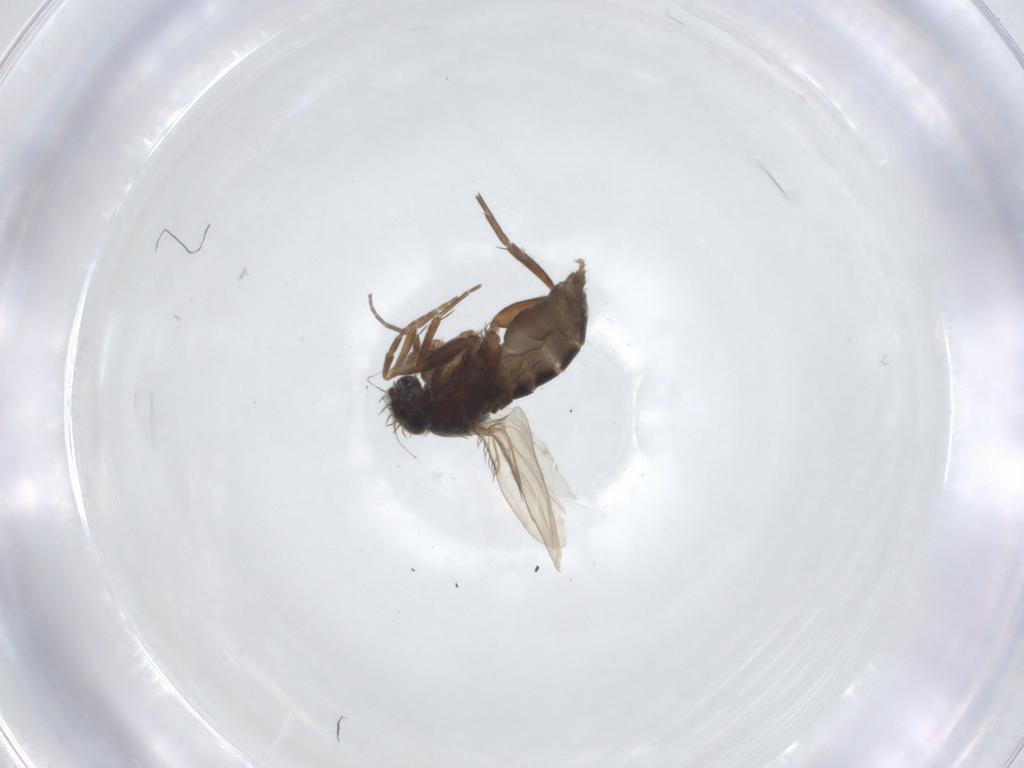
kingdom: Animalia
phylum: Arthropoda
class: Insecta
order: Diptera
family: Phoridae
